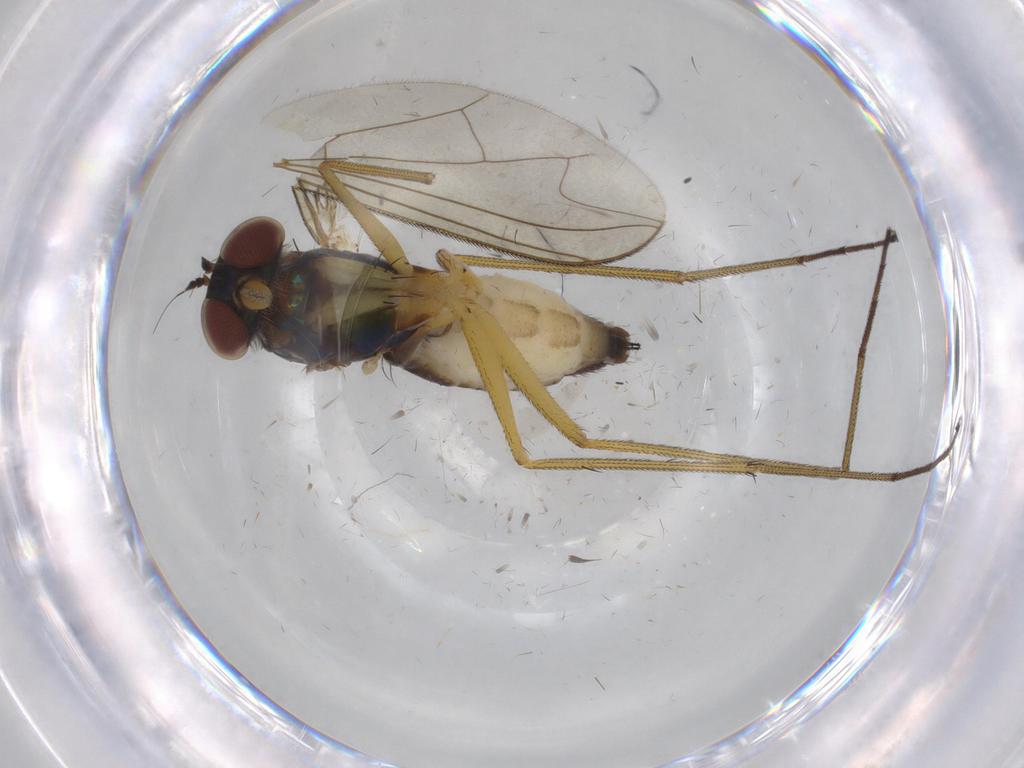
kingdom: Animalia
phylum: Arthropoda
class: Insecta
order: Diptera
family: Dolichopodidae
